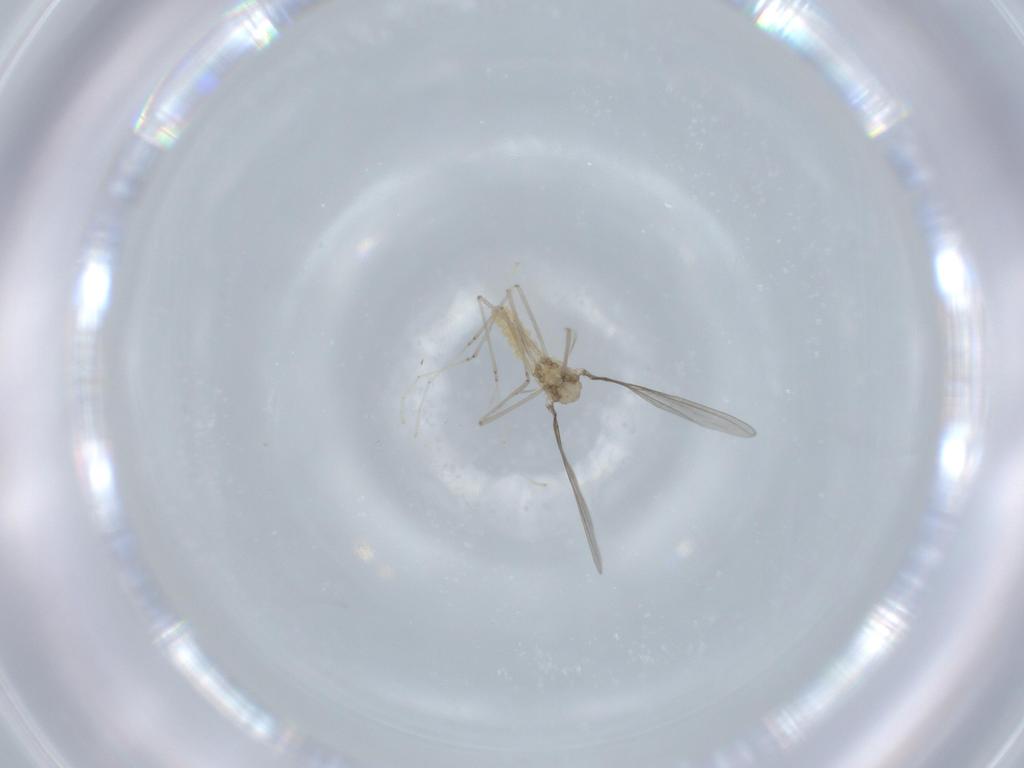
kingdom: Animalia
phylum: Arthropoda
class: Insecta
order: Diptera
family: Cecidomyiidae
